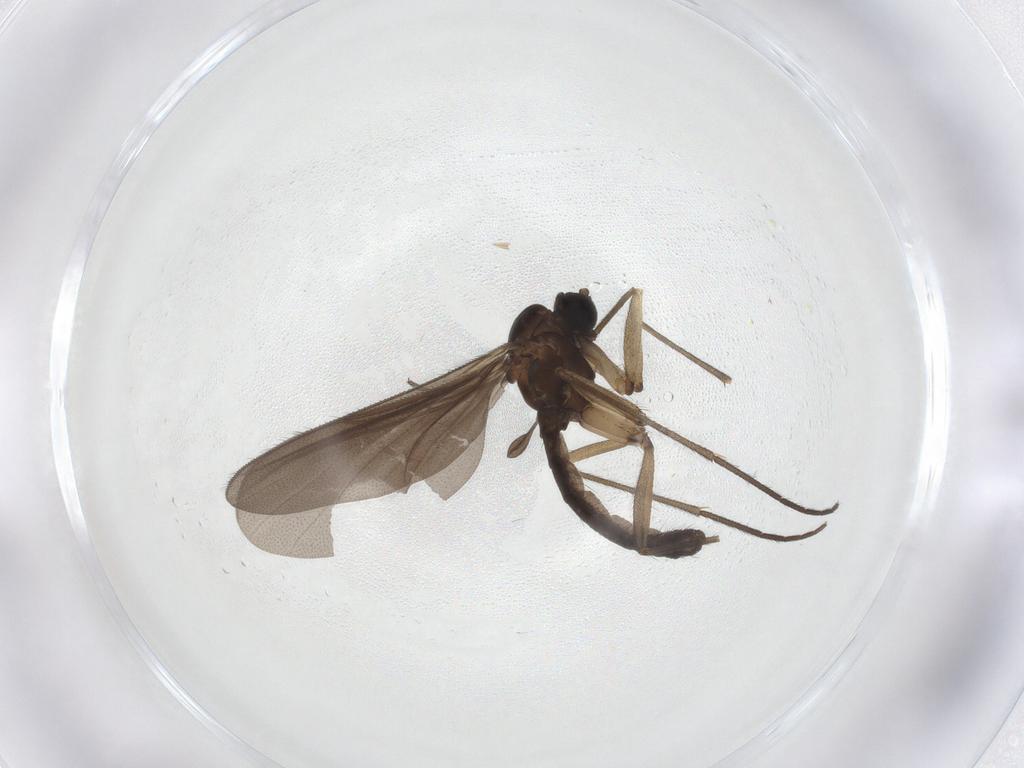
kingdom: Animalia
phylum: Arthropoda
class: Insecta
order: Diptera
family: Sciaridae
